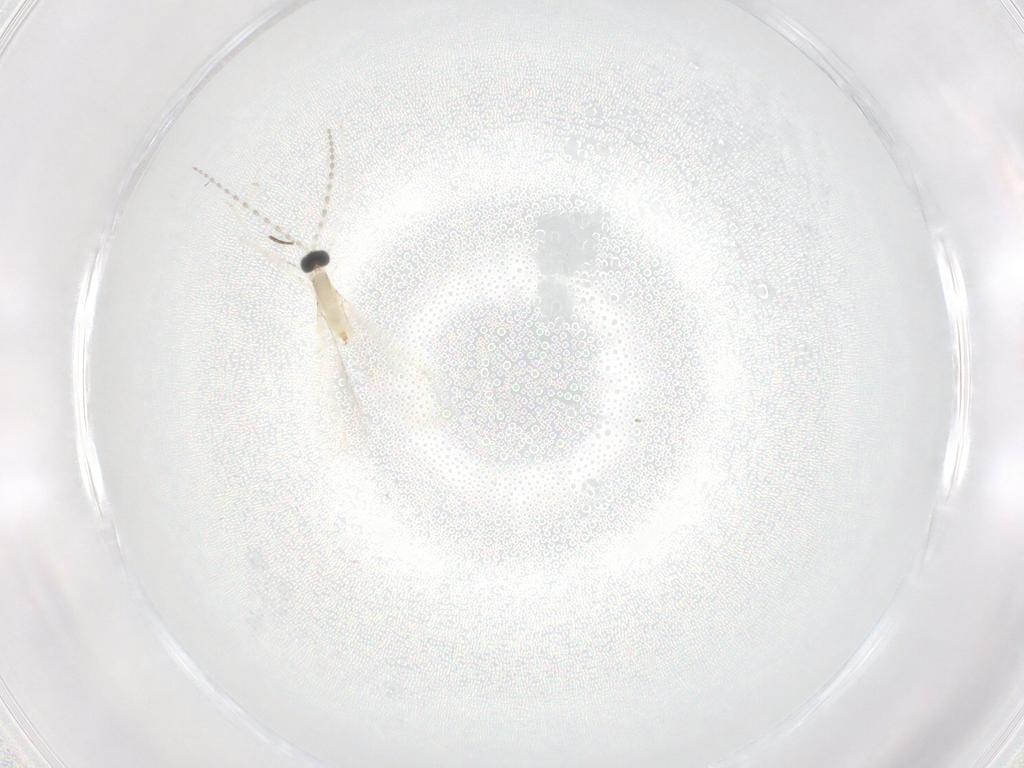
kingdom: Animalia
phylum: Arthropoda
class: Insecta
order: Diptera
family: Cecidomyiidae
